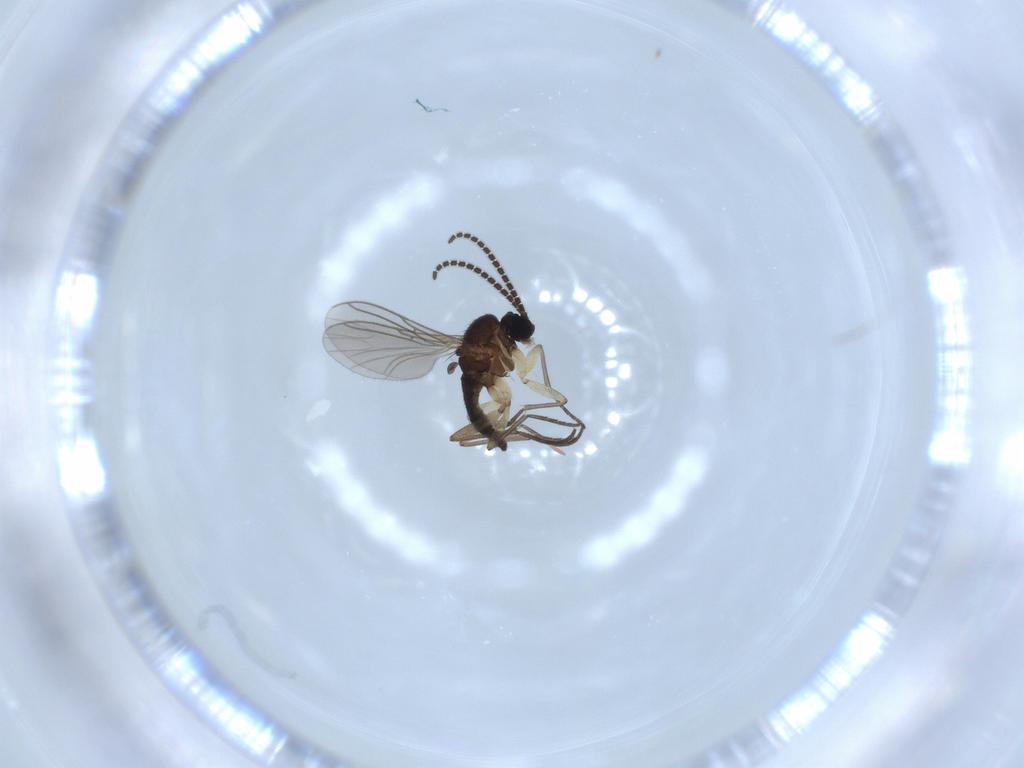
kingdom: Animalia
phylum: Arthropoda
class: Insecta
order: Diptera
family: Sciaridae
